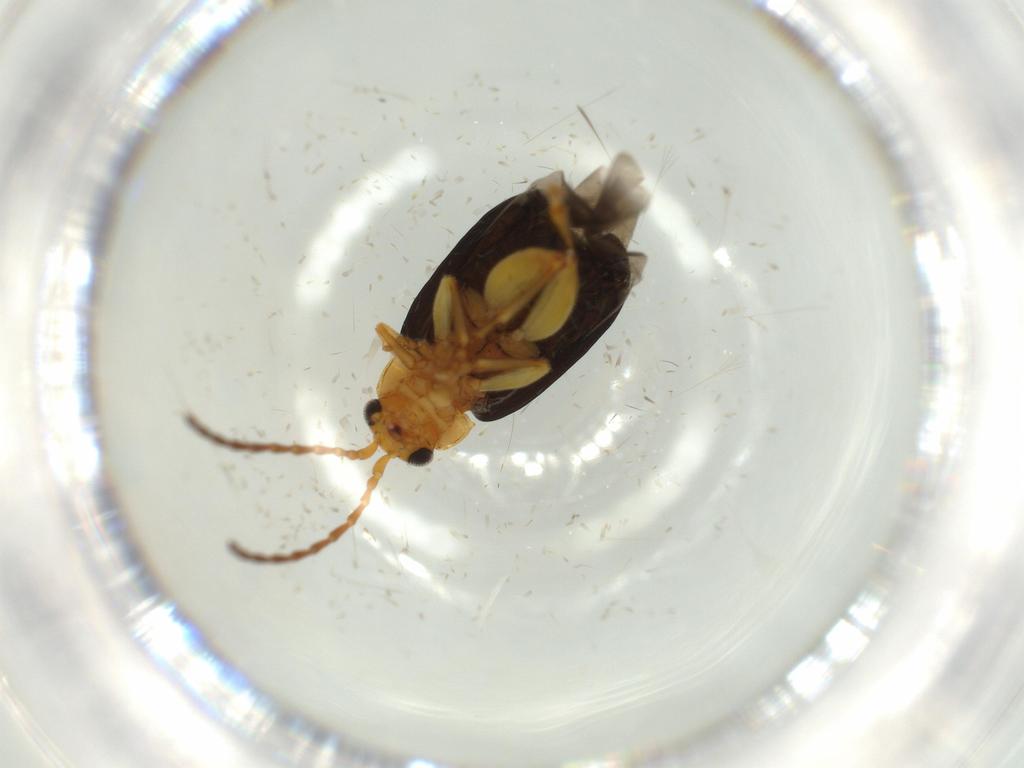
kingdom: Animalia
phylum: Arthropoda
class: Insecta
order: Coleoptera
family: Chrysomelidae
